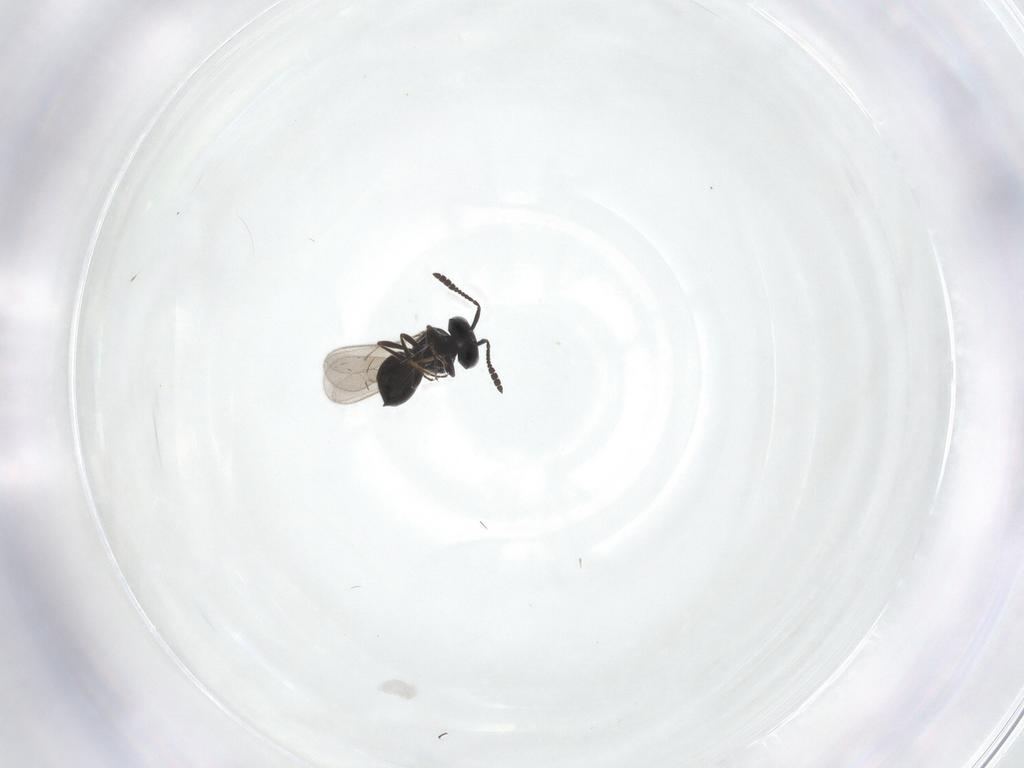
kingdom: Animalia
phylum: Arthropoda
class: Insecta
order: Hymenoptera
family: Scelionidae
